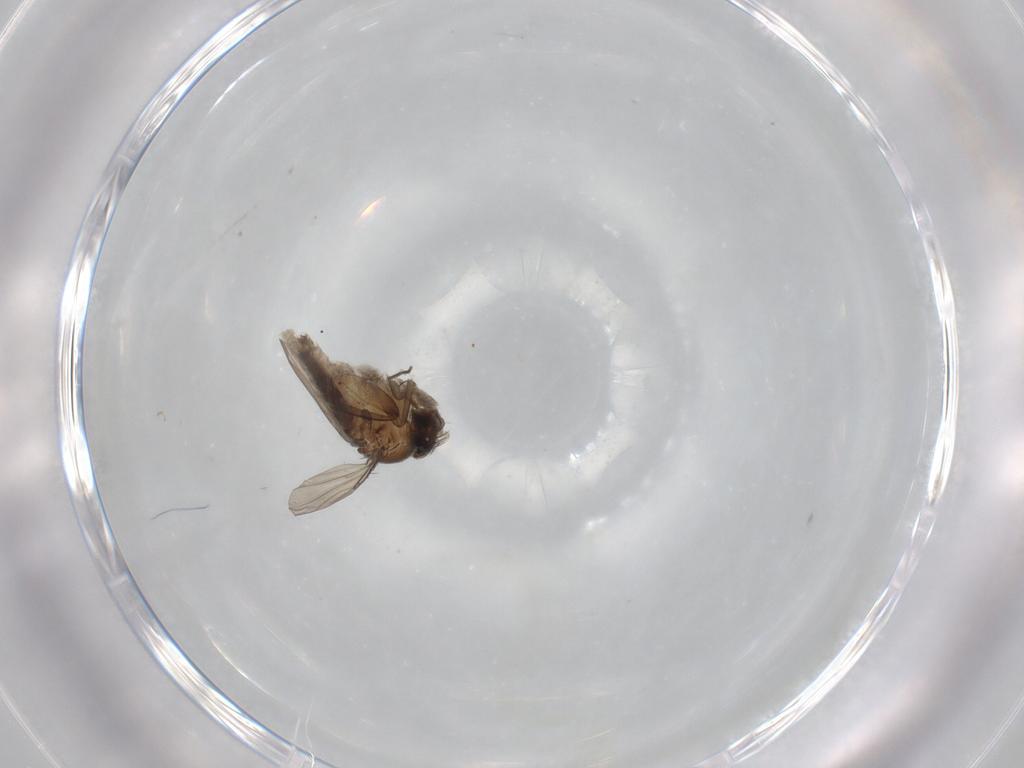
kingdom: Animalia
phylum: Arthropoda
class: Insecta
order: Diptera
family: Phoridae
